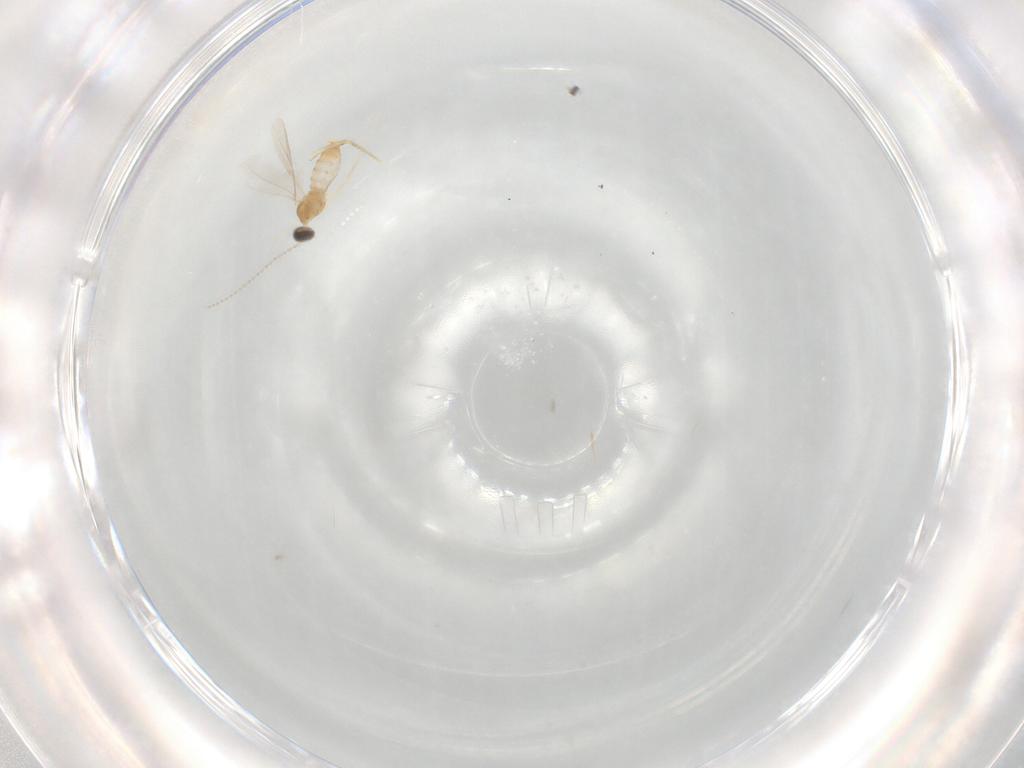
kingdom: Animalia
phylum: Arthropoda
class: Insecta
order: Diptera
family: Cecidomyiidae
